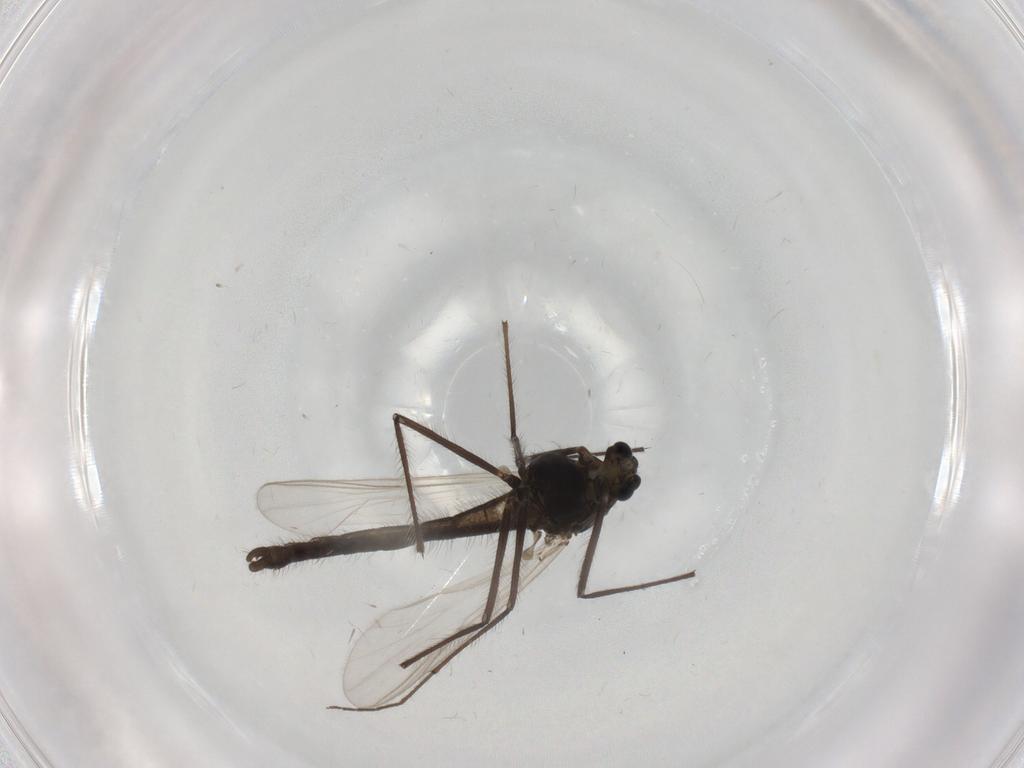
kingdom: Animalia
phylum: Arthropoda
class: Insecta
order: Diptera
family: Chironomidae
